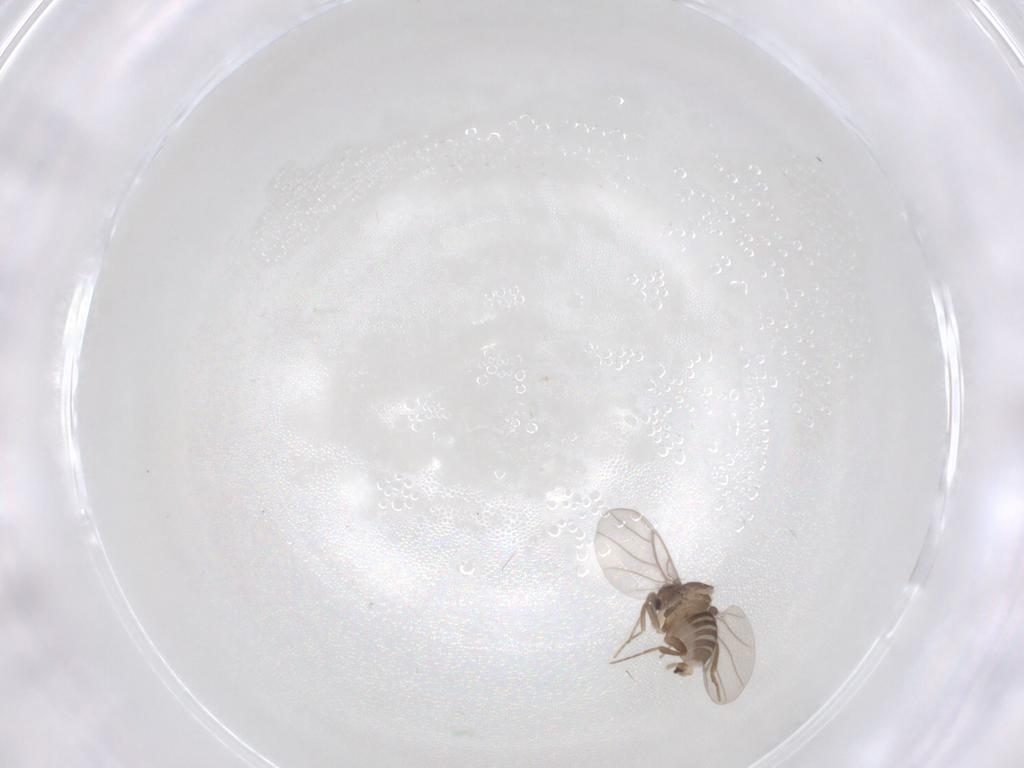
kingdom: Animalia
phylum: Arthropoda
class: Insecta
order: Diptera
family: Hybotidae
